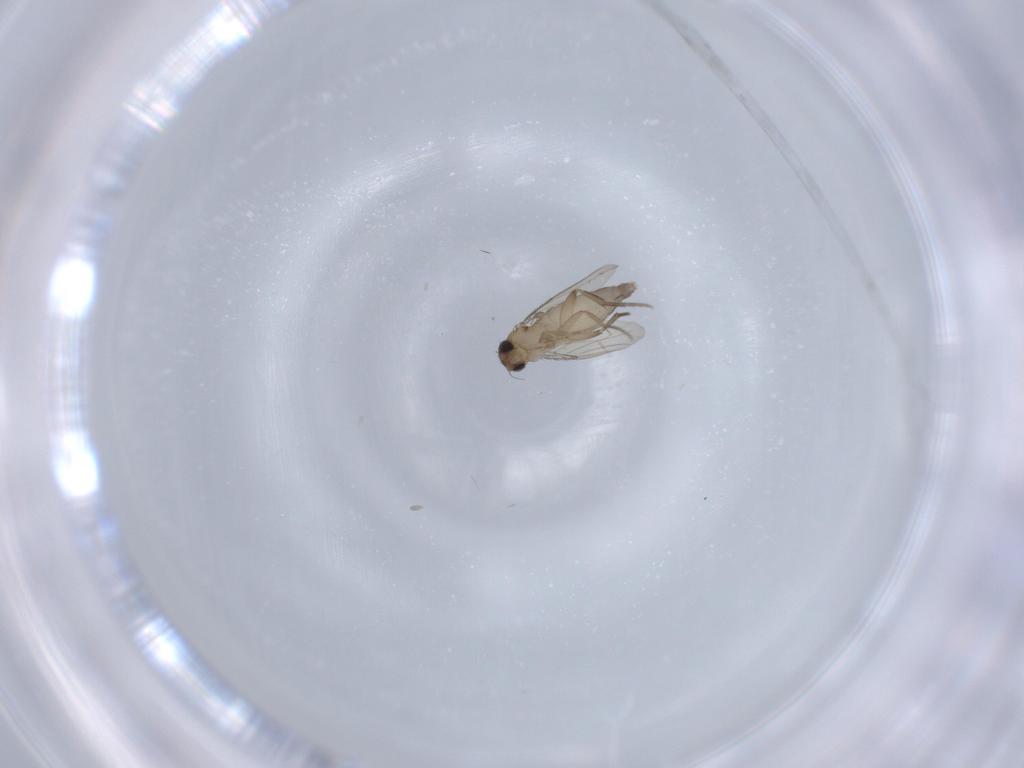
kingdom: Animalia
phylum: Arthropoda
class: Insecta
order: Diptera
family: Phoridae
